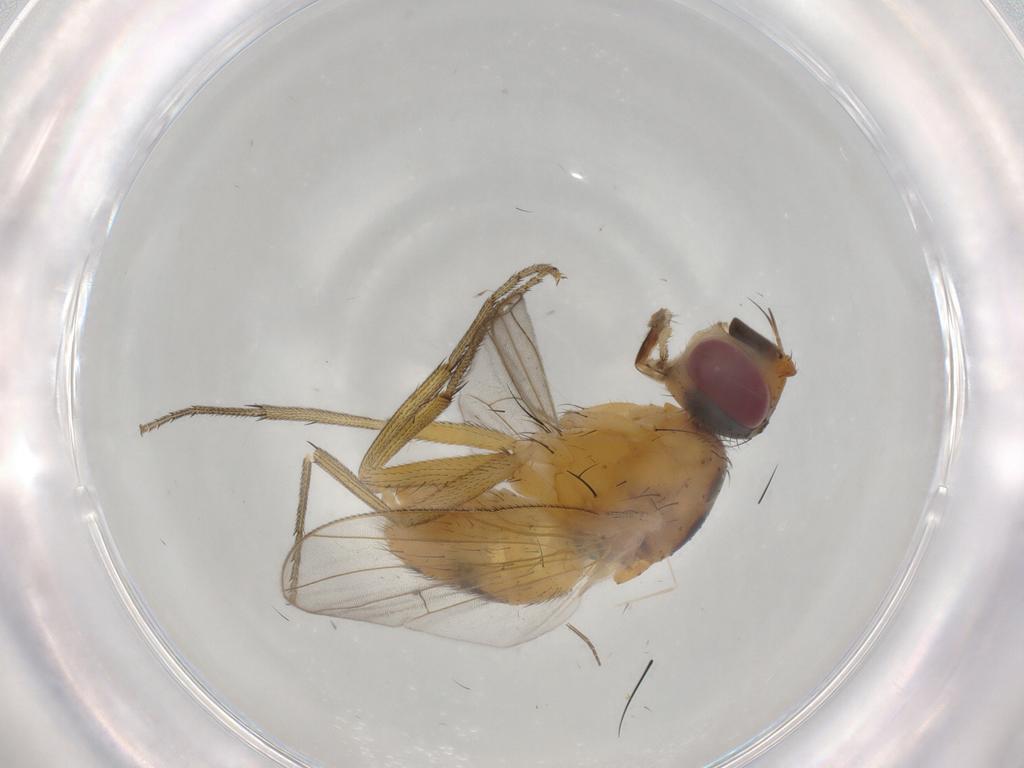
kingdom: Animalia
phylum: Arthropoda
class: Insecta
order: Diptera
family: Muscidae
